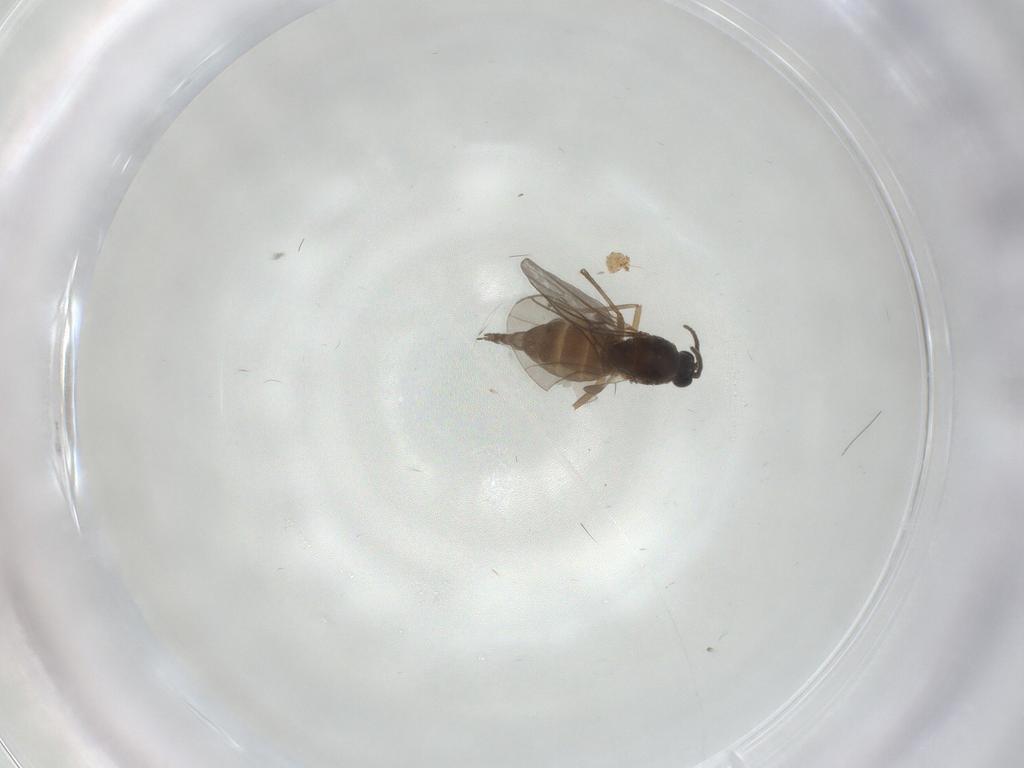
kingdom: Animalia
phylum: Arthropoda
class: Insecta
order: Diptera
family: Sciaridae
